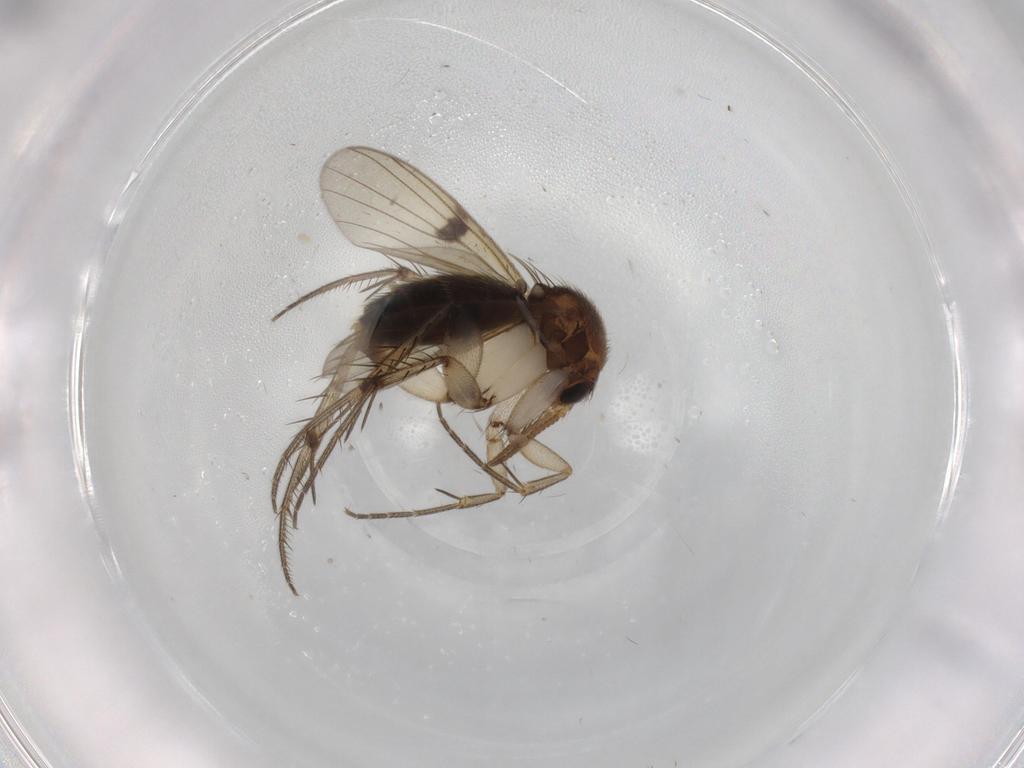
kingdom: Animalia
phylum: Arthropoda
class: Insecta
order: Diptera
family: Mycetophilidae
